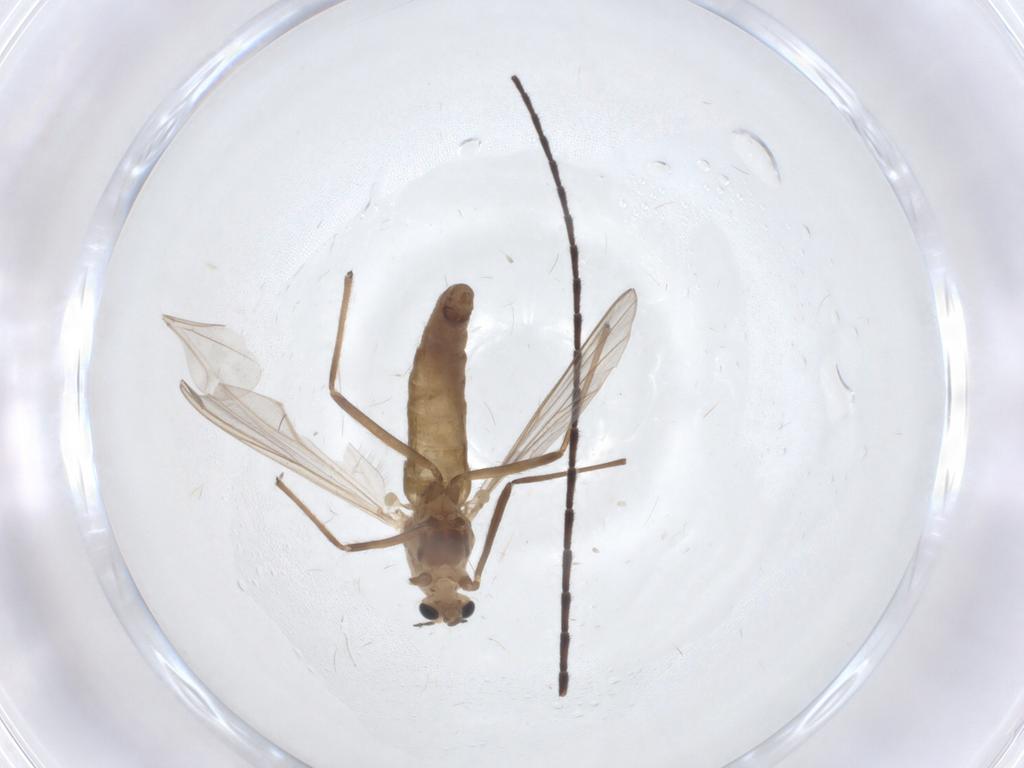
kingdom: Animalia
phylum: Arthropoda
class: Insecta
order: Diptera
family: Chironomidae
